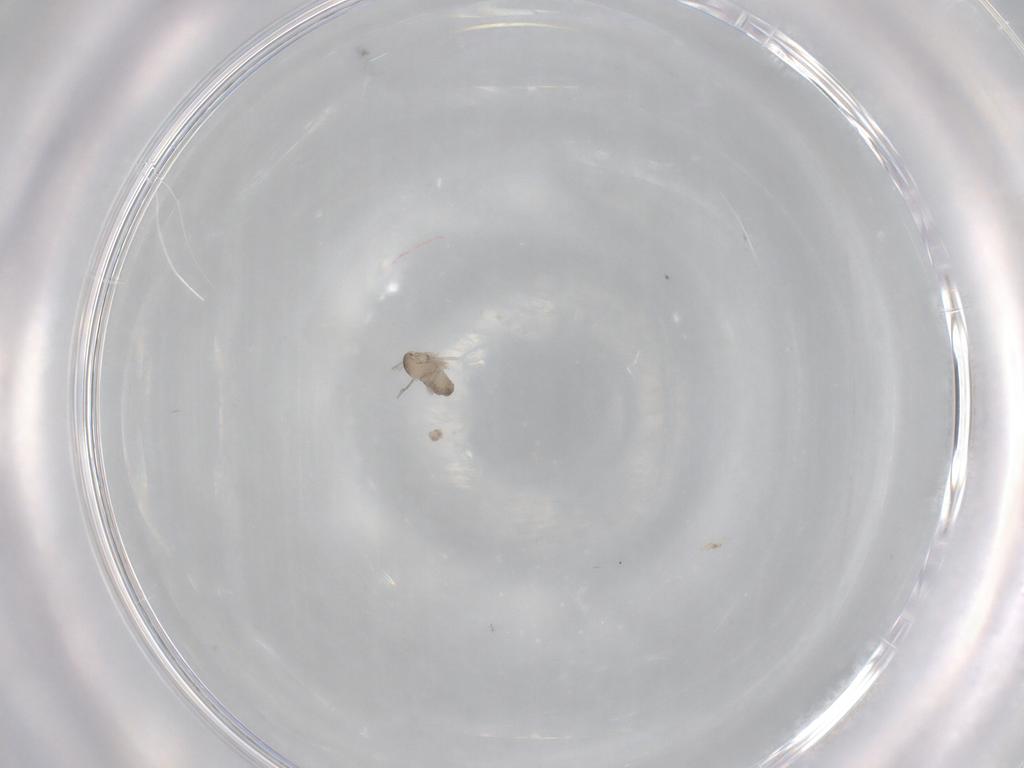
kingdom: Animalia
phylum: Arthropoda
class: Insecta
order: Diptera
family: Cecidomyiidae
